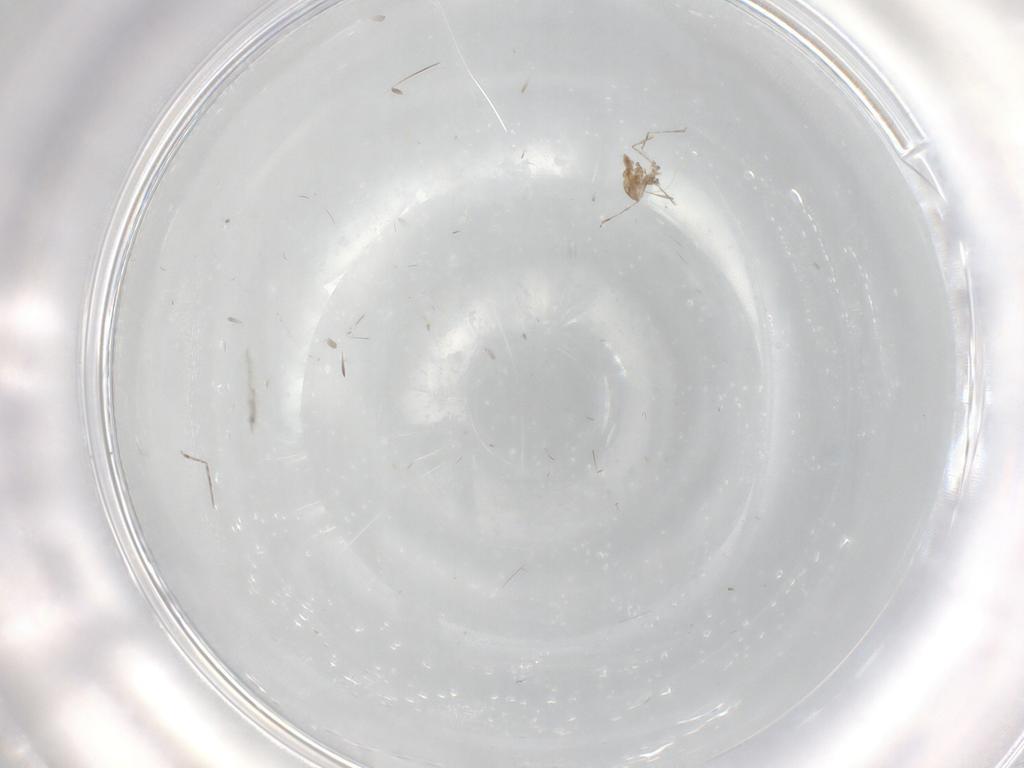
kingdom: Animalia
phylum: Arthropoda
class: Insecta
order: Diptera
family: Cecidomyiidae
